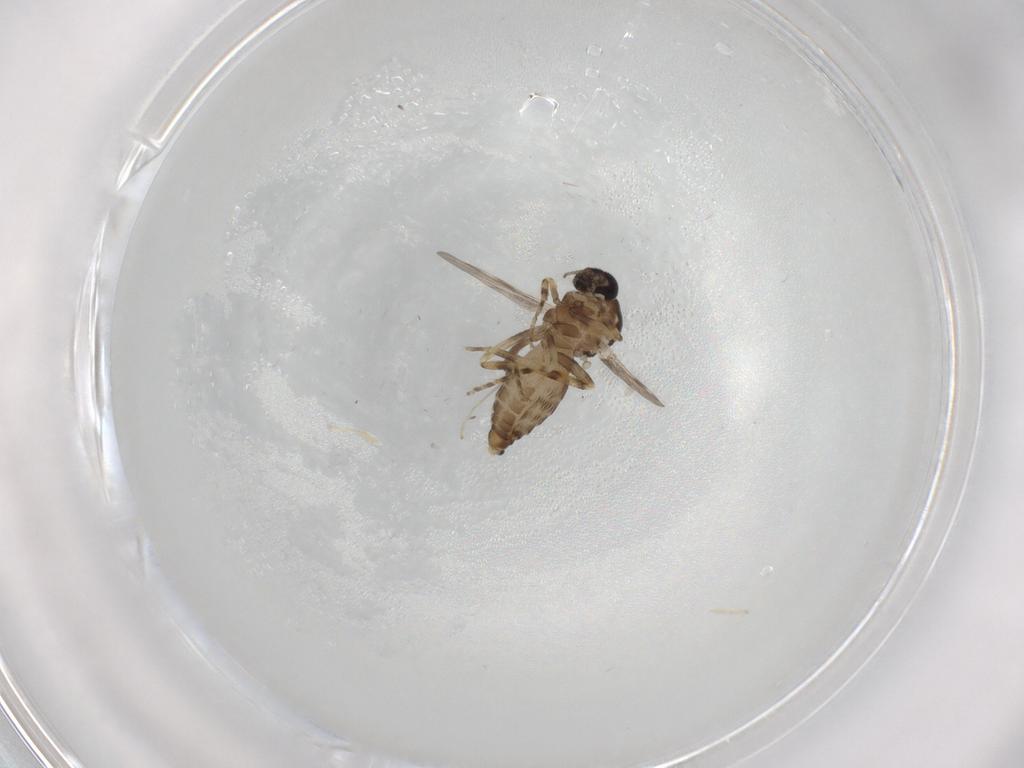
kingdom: Animalia
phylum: Arthropoda
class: Insecta
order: Diptera
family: Ceratopogonidae
